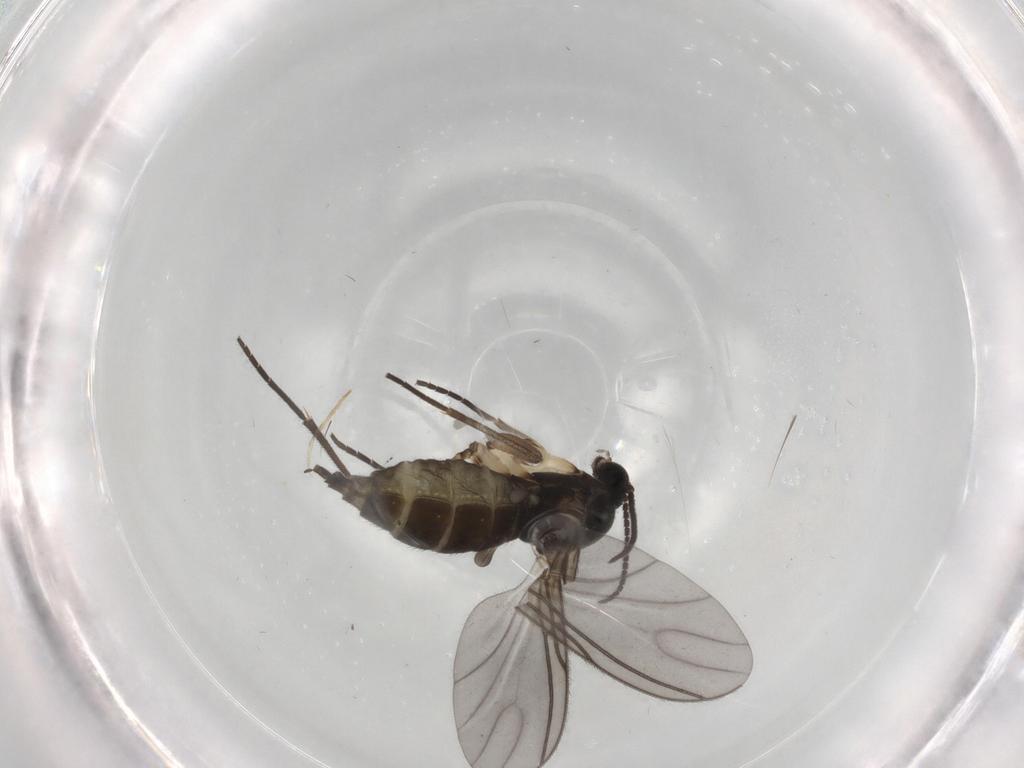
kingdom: Animalia
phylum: Arthropoda
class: Insecta
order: Diptera
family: Sciaridae
